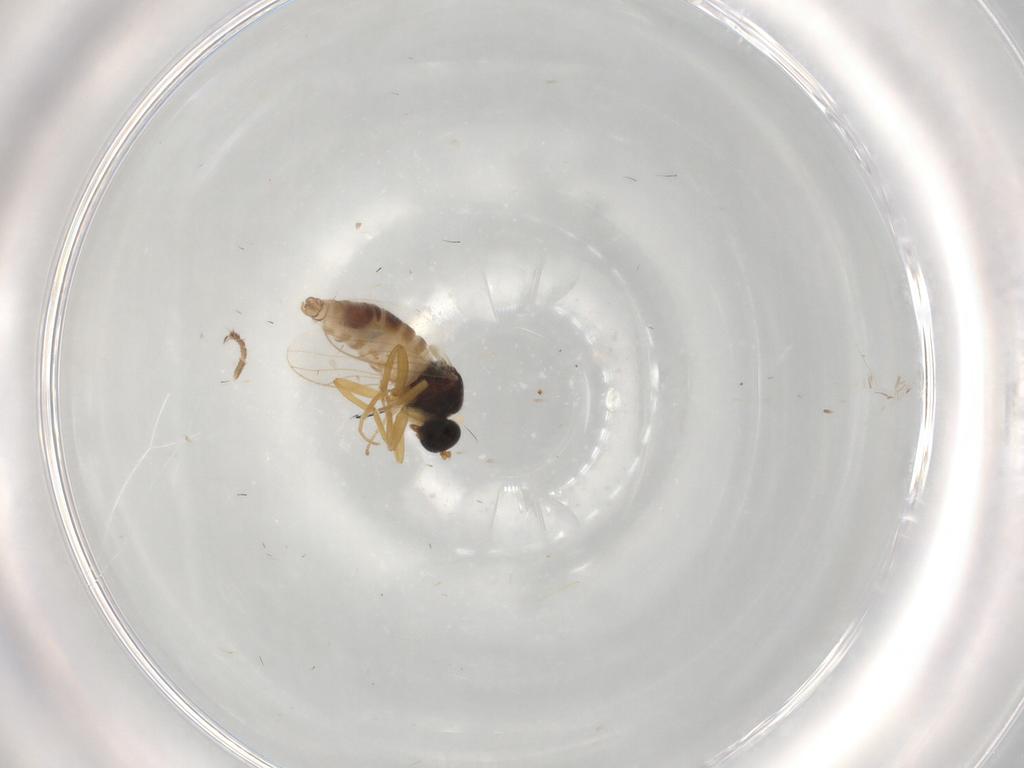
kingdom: Animalia
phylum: Arthropoda
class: Insecta
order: Diptera
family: Hybotidae
